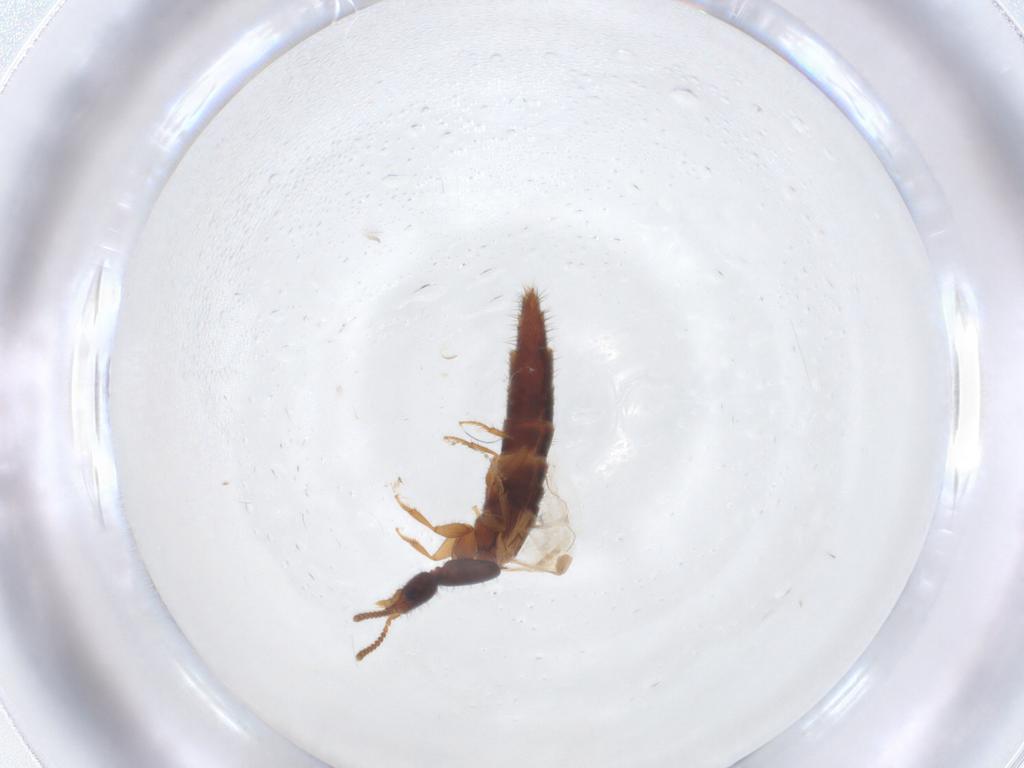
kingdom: Animalia
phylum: Arthropoda
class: Insecta
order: Coleoptera
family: Staphylinidae
